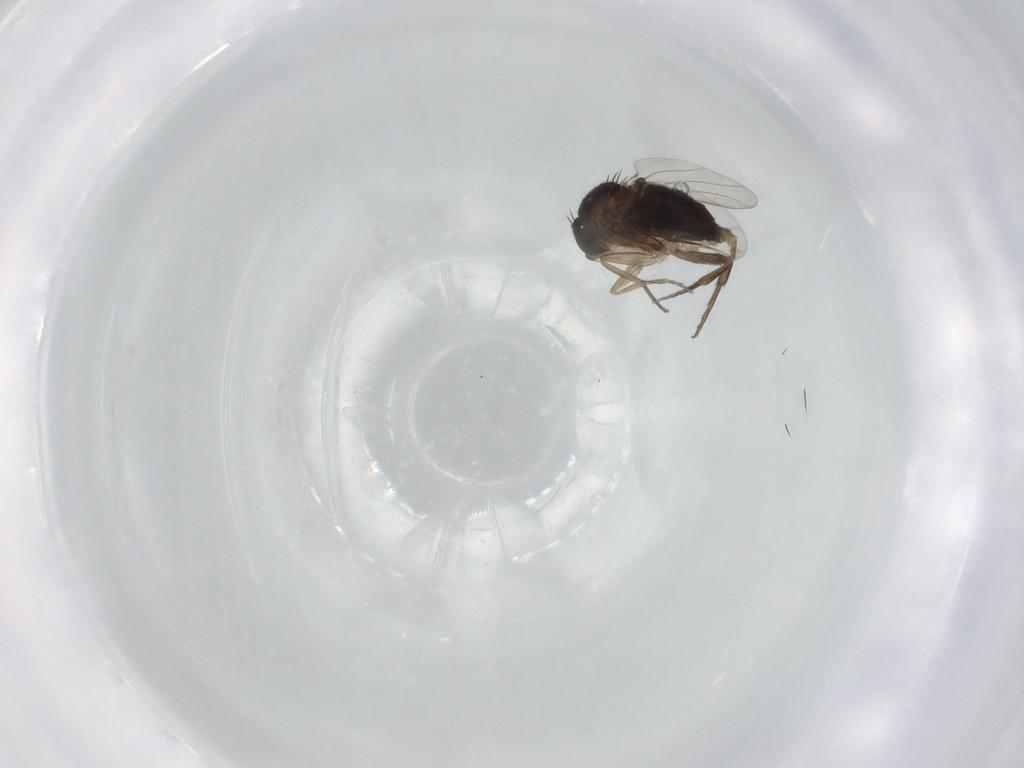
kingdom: Animalia
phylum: Arthropoda
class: Insecta
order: Diptera
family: Phoridae
